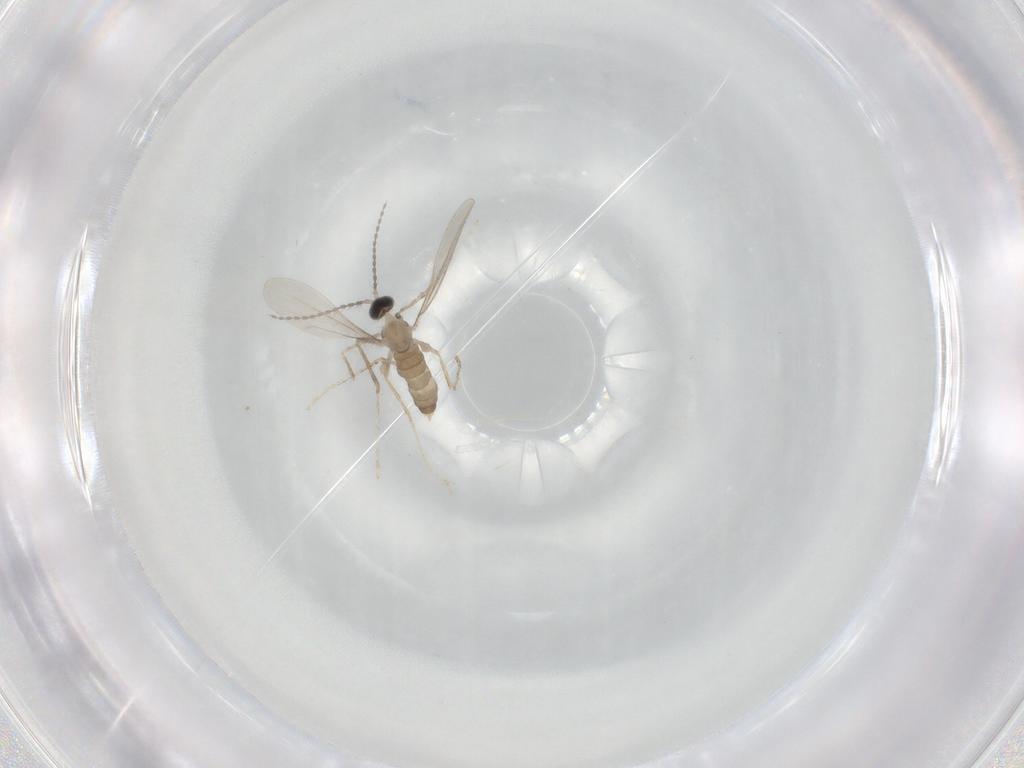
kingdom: Animalia
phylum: Arthropoda
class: Insecta
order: Diptera
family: Cecidomyiidae
